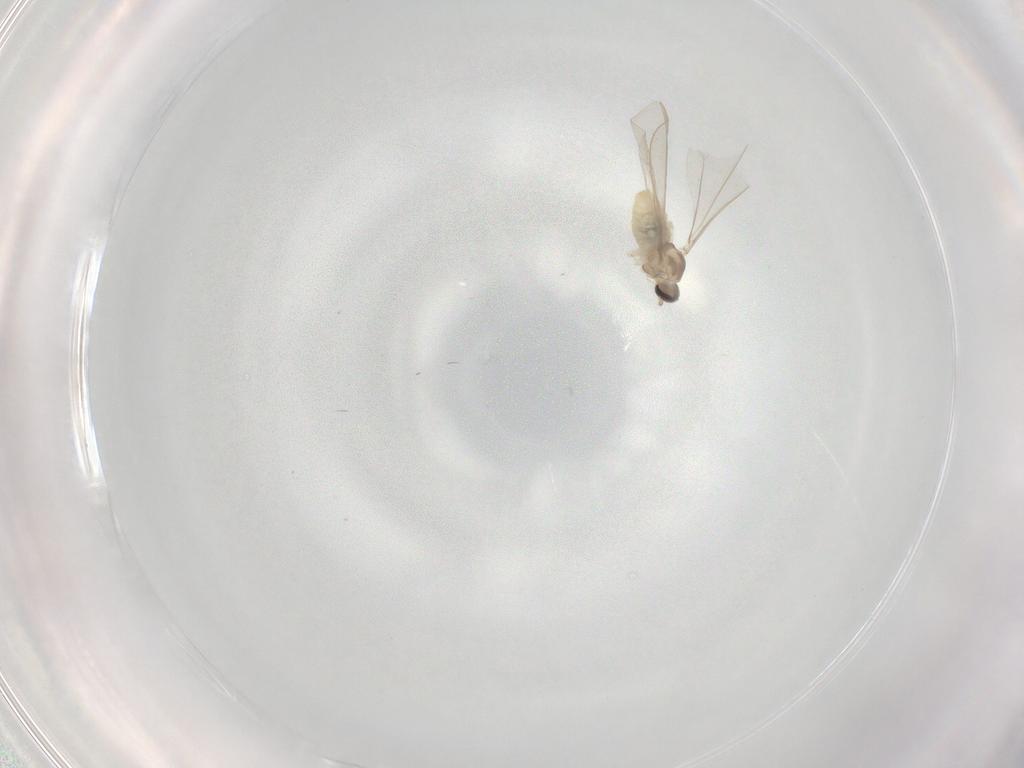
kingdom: Animalia
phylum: Arthropoda
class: Insecta
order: Diptera
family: Cecidomyiidae
